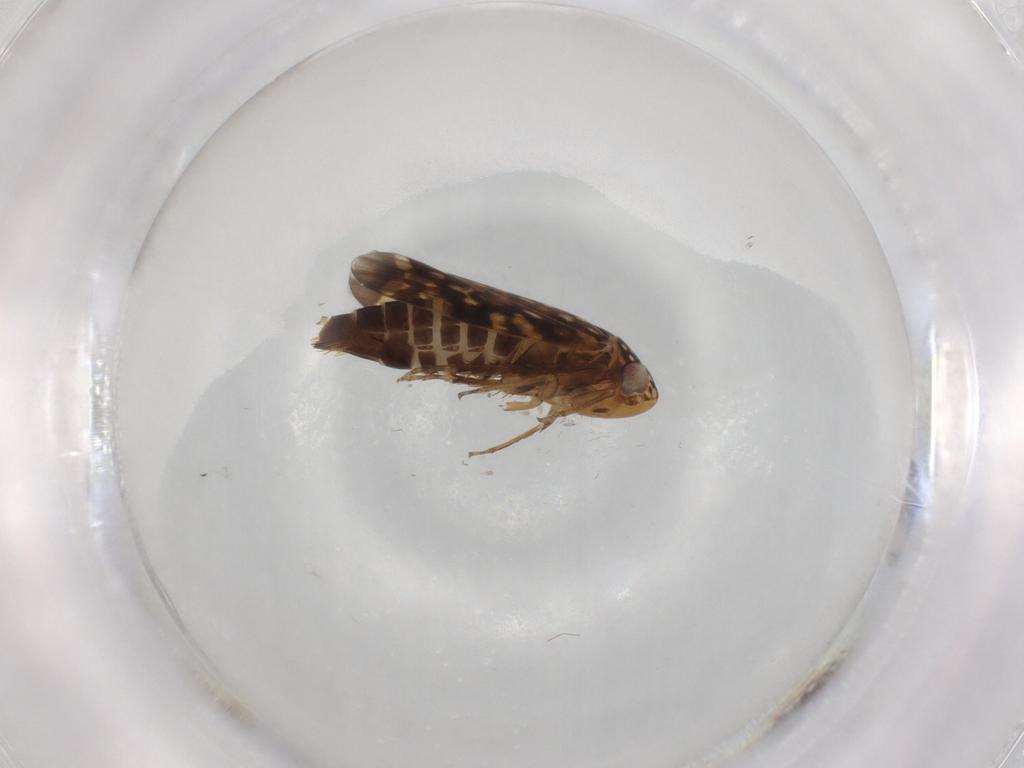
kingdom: Animalia
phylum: Arthropoda
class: Insecta
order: Hemiptera
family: Cicadellidae
